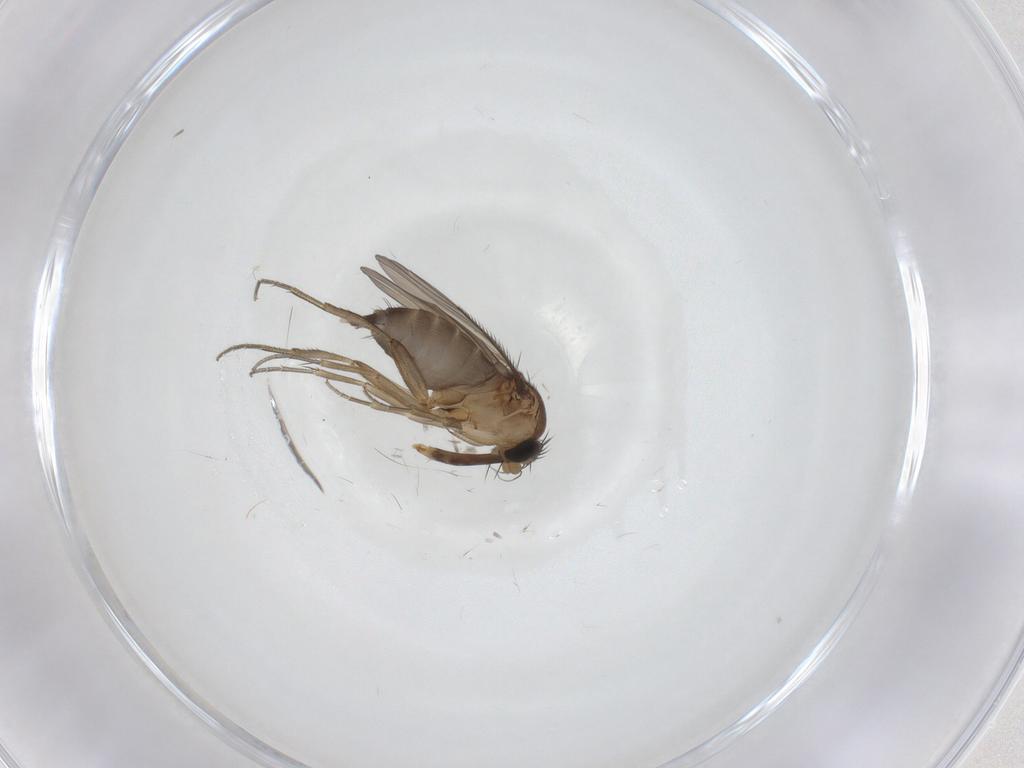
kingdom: Animalia
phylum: Arthropoda
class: Insecta
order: Diptera
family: Phoridae
